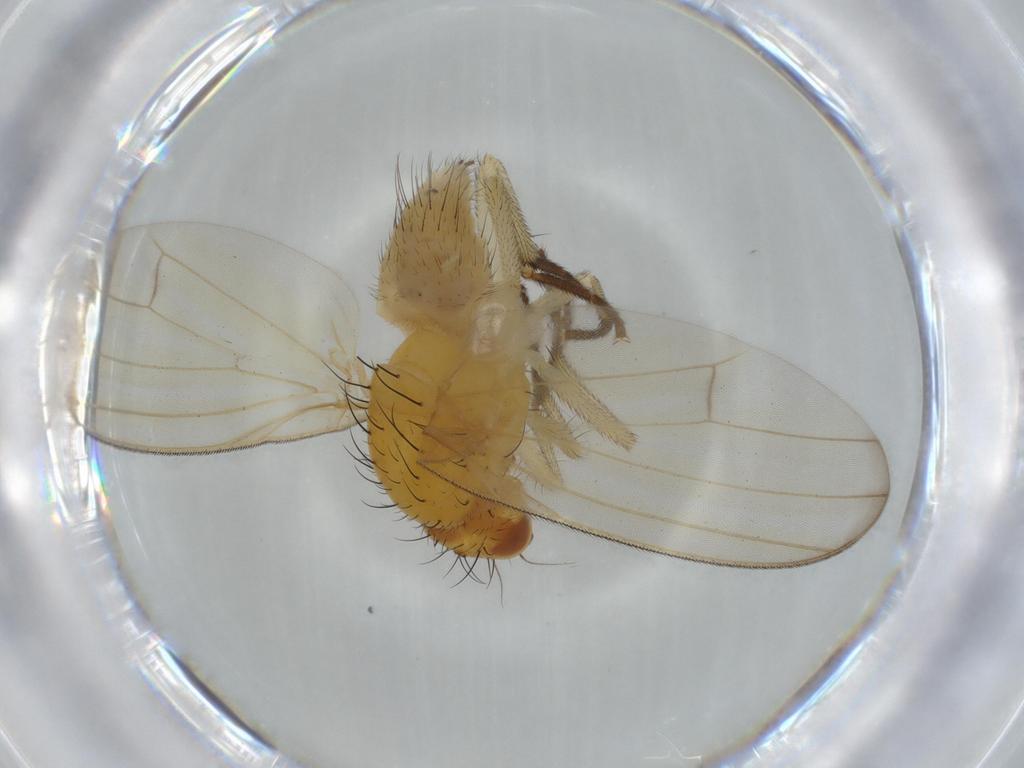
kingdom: Animalia
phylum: Arthropoda
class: Insecta
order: Diptera
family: Lauxaniidae
